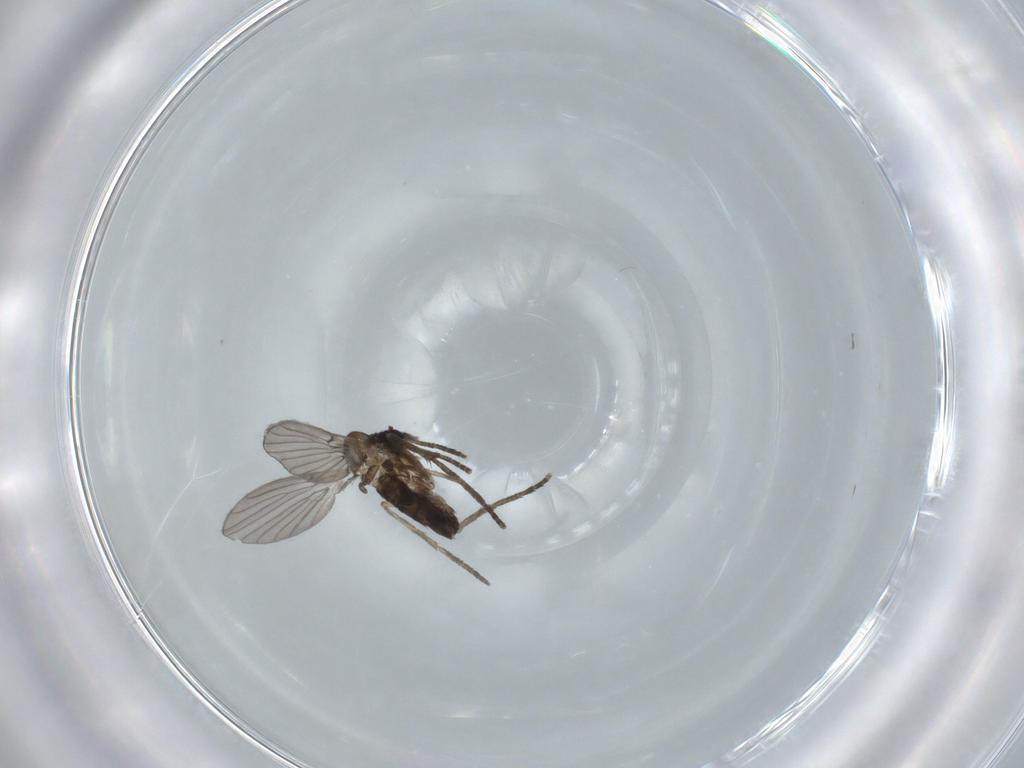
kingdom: Animalia
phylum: Arthropoda
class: Insecta
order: Diptera
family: Psychodidae
